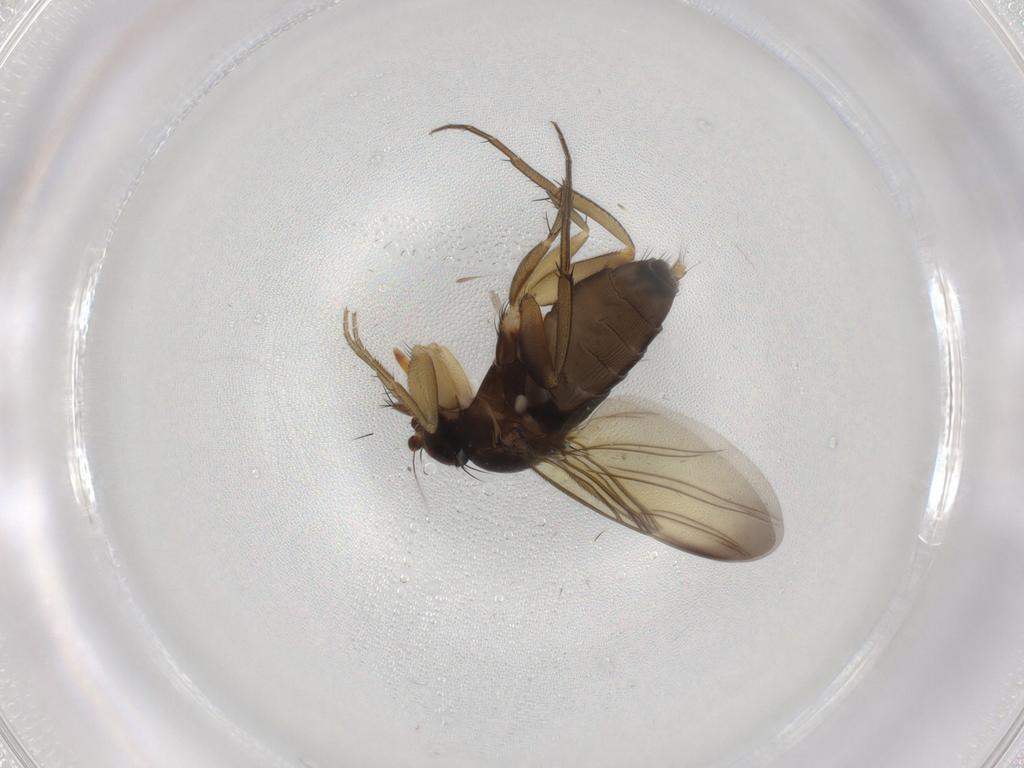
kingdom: Animalia
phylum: Arthropoda
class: Insecta
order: Diptera
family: Phoridae
